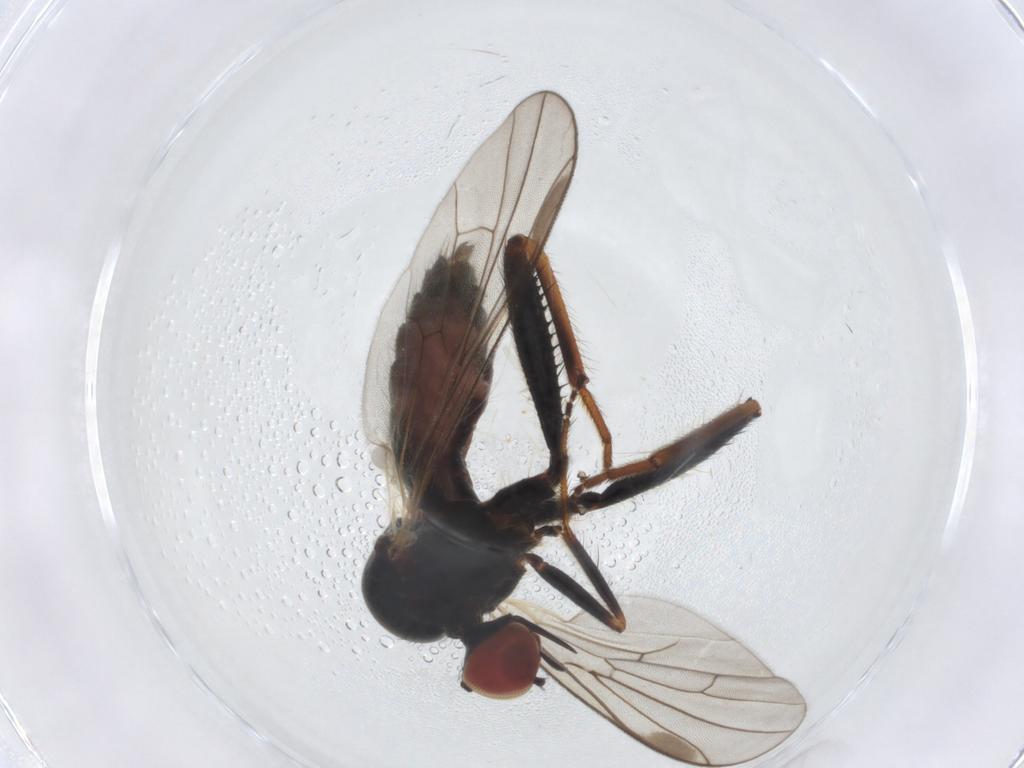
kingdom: Animalia
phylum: Arthropoda
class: Insecta
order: Diptera
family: Hybotidae
